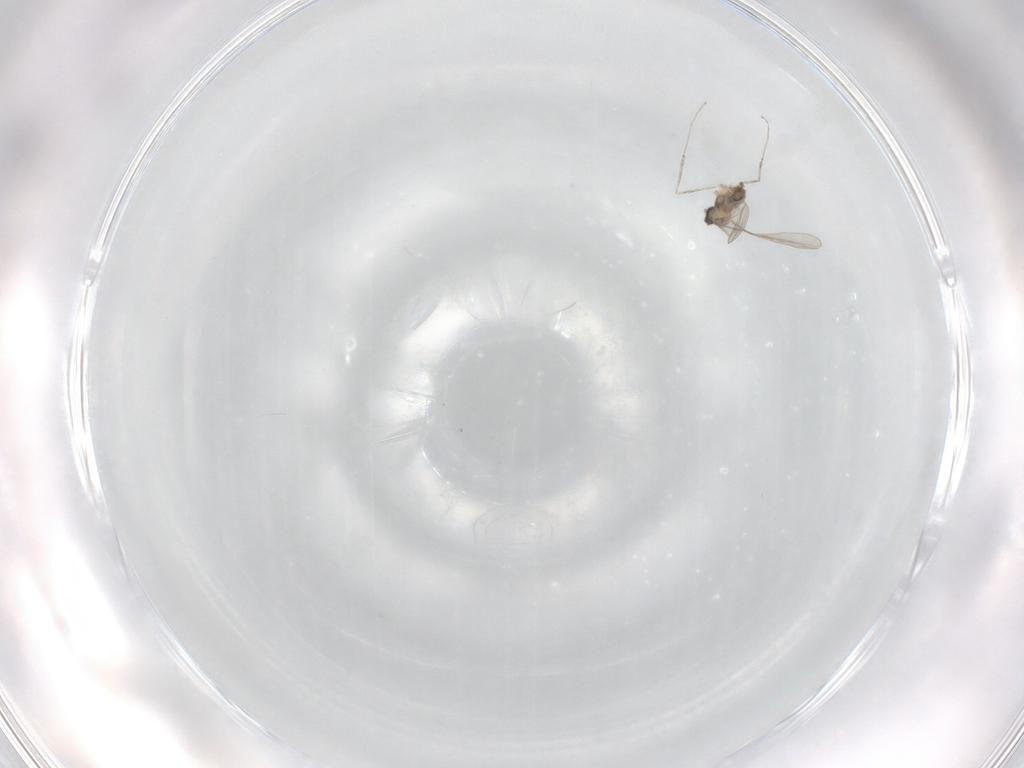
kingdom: Animalia
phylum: Arthropoda
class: Insecta
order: Diptera
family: Cecidomyiidae
